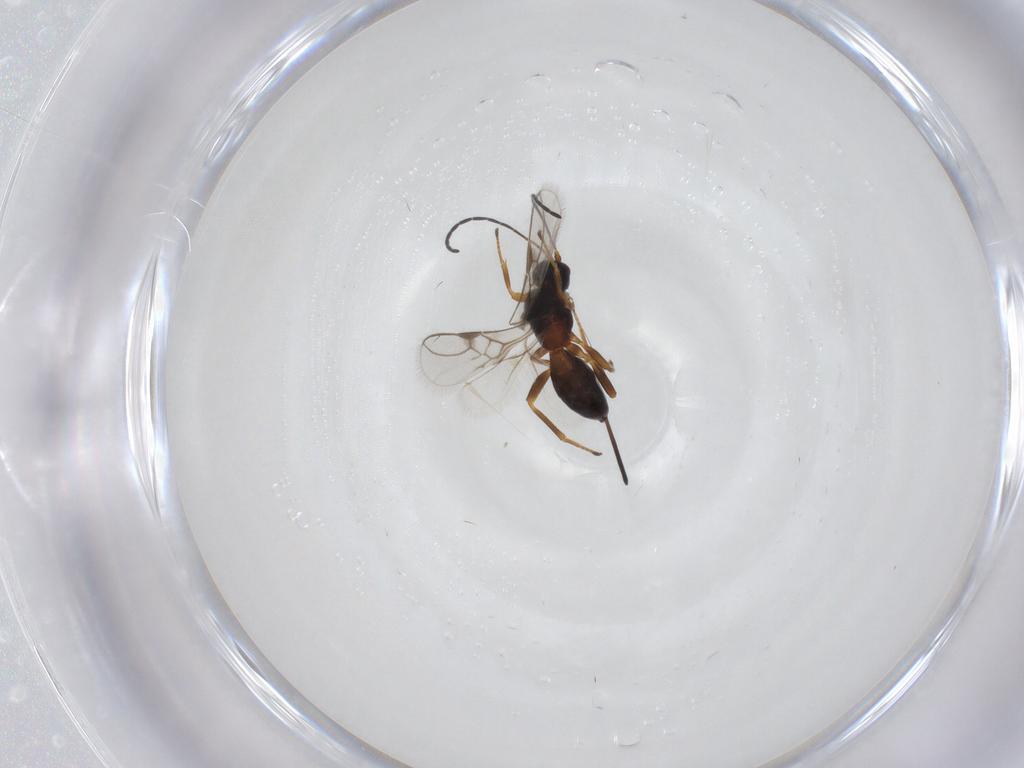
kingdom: Animalia
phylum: Arthropoda
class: Insecta
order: Hymenoptera
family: Braconidae
